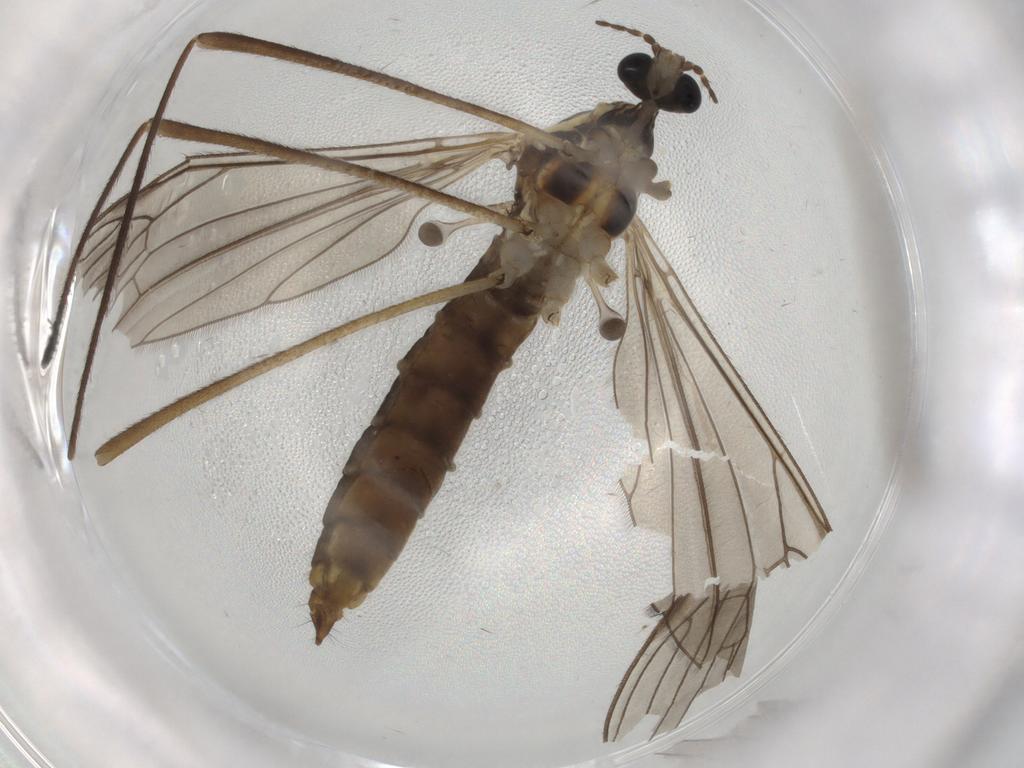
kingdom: Animalia
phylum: Arthropoda
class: Insecta
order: Diptera
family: Limoniidae
